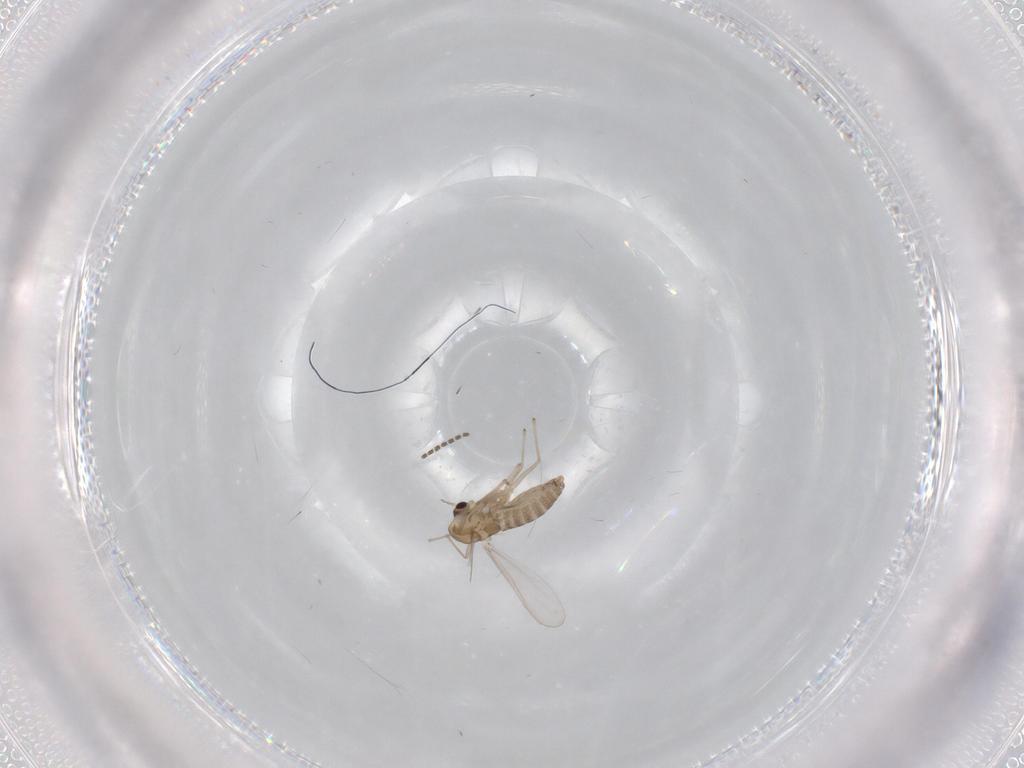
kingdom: Animalia
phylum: Arthropoda
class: Insecta
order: Diptera
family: Chironomidae
